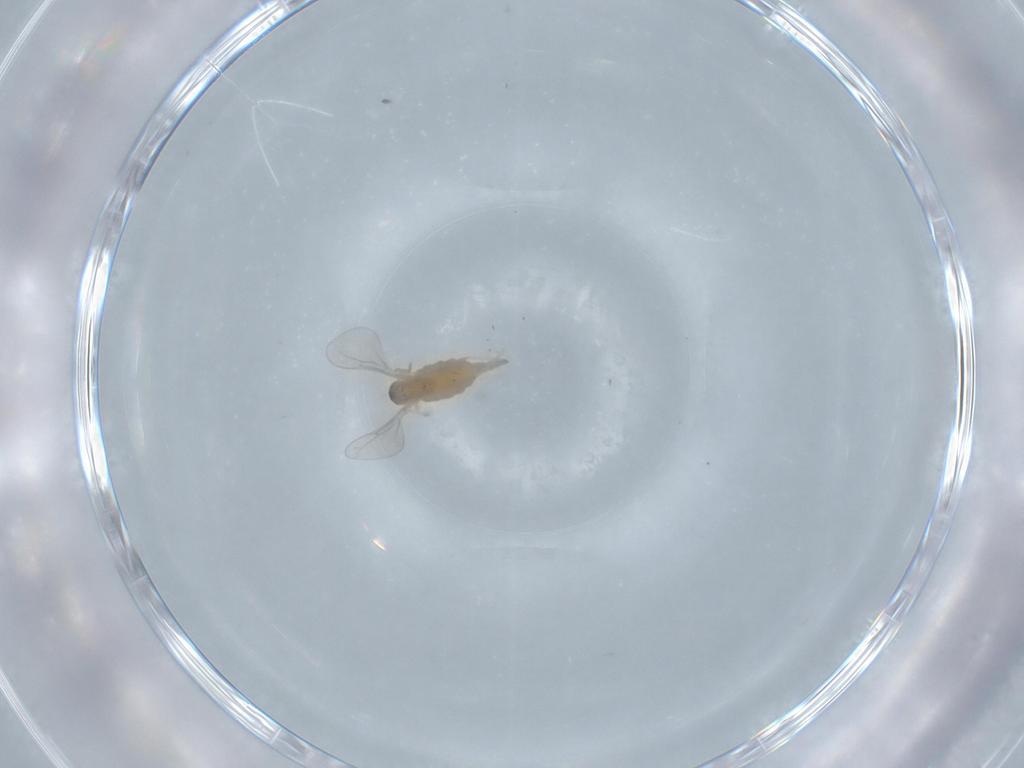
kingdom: Animalia
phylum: Arthropoda
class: Insecta
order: Diptera
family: Cecidomyiidae
